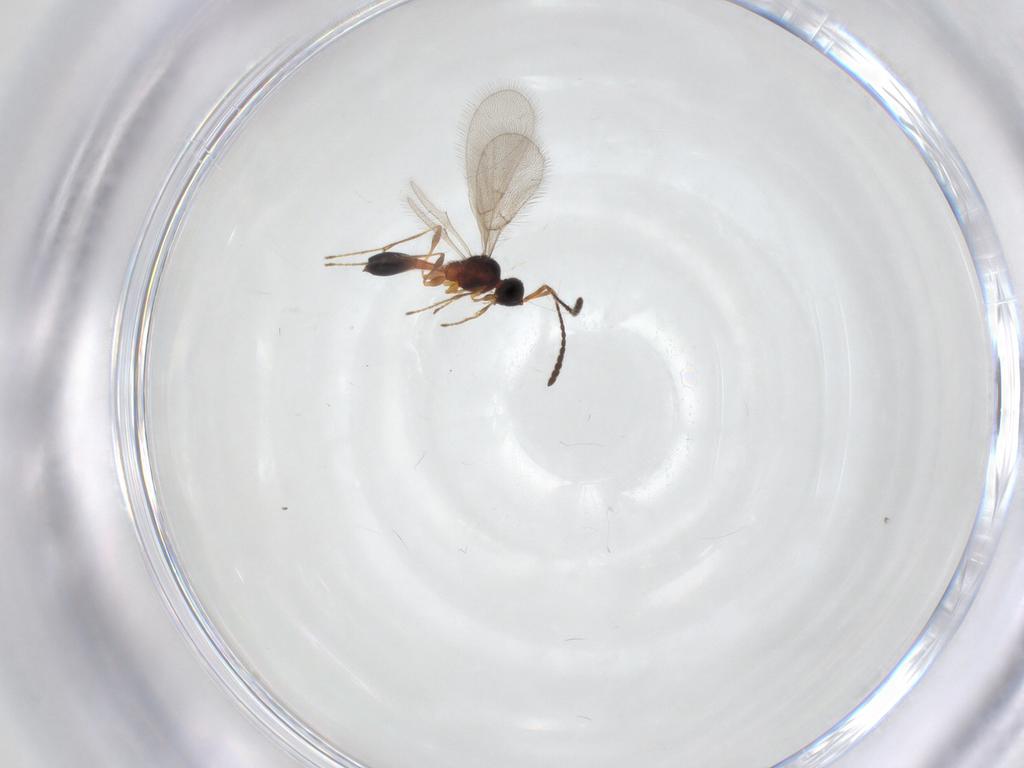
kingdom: Animalia
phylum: Arthropoda
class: Insecta
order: Hymenoptera
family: Diapriidae
